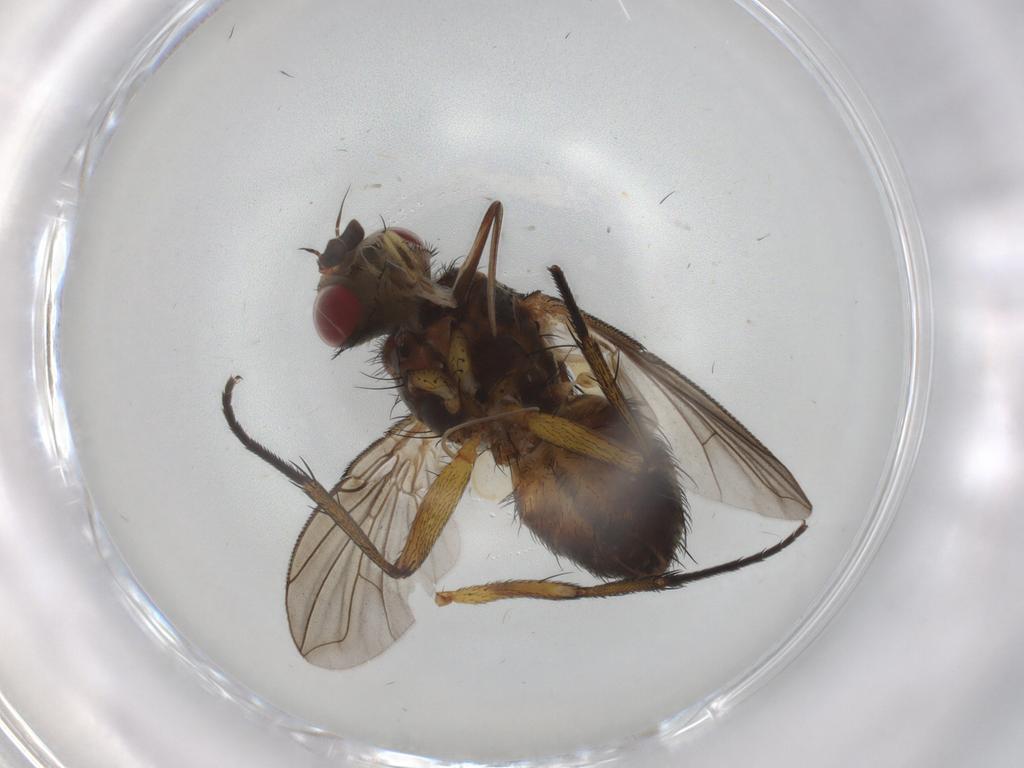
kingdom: Animalia
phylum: Arthropoda
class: Insecta
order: Diptera
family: Tachinidae
